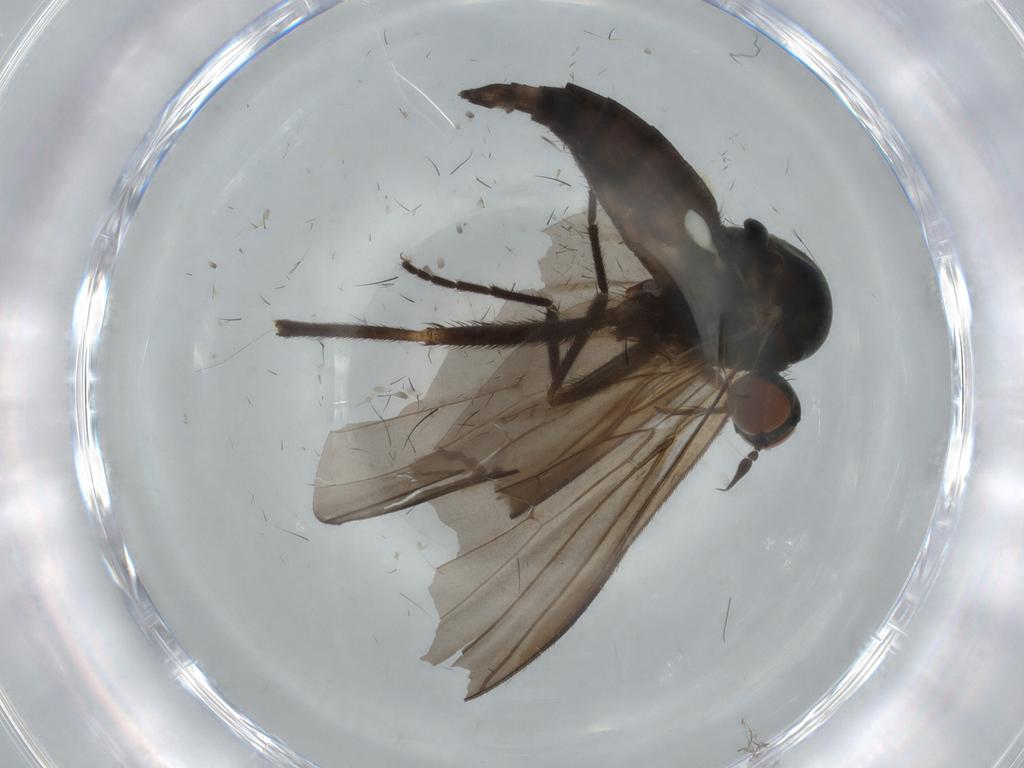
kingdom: Animalia
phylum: Arthropoda
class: Insecta
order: Diptera
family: Empididae
